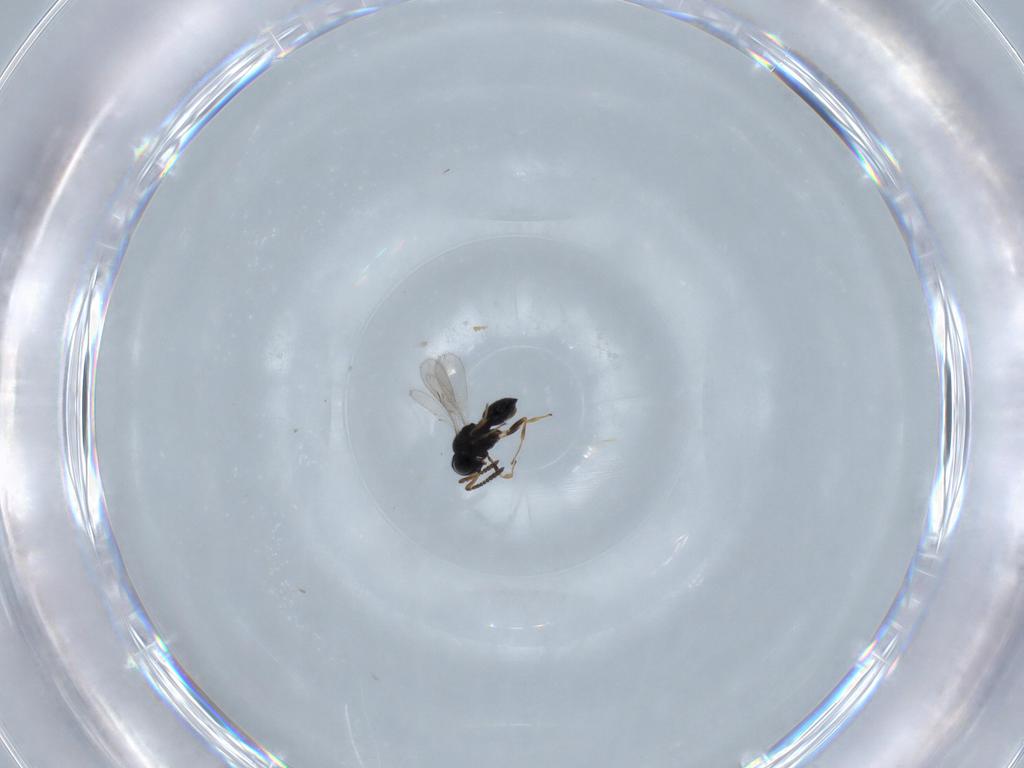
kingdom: Animalia
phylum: Arthropoda
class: Insecta
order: Hymenoptera
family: Scelionidae
